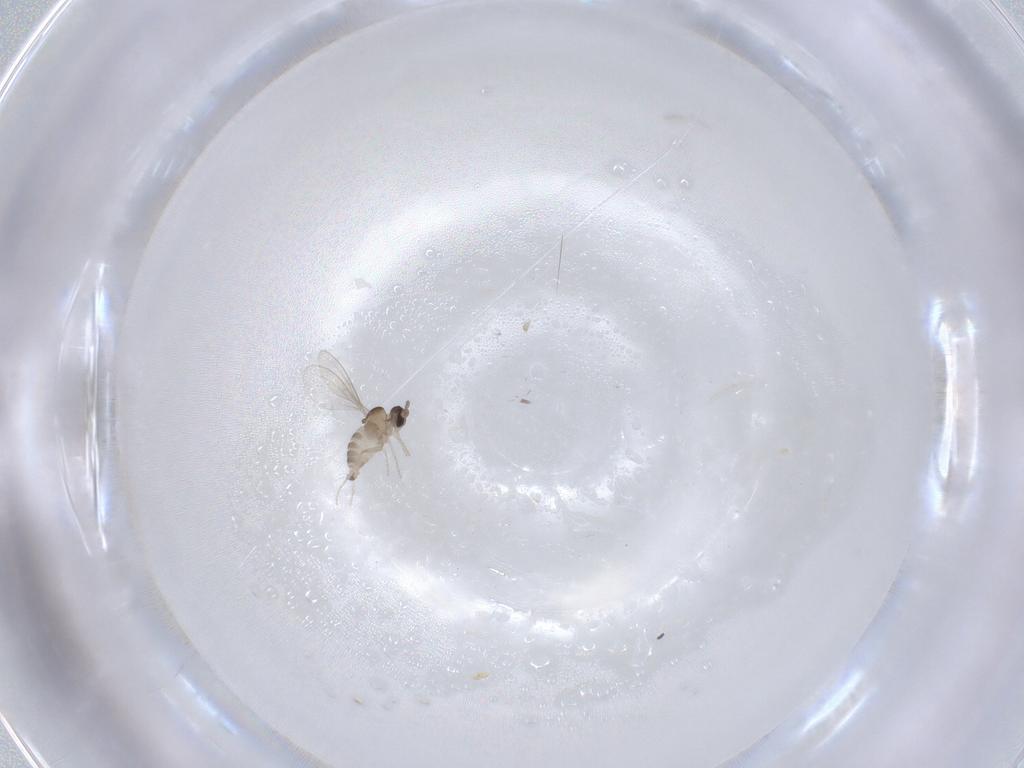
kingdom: Animalia
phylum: Arthropoda
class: Insecta
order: Diptera
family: Cecidomyiidae
